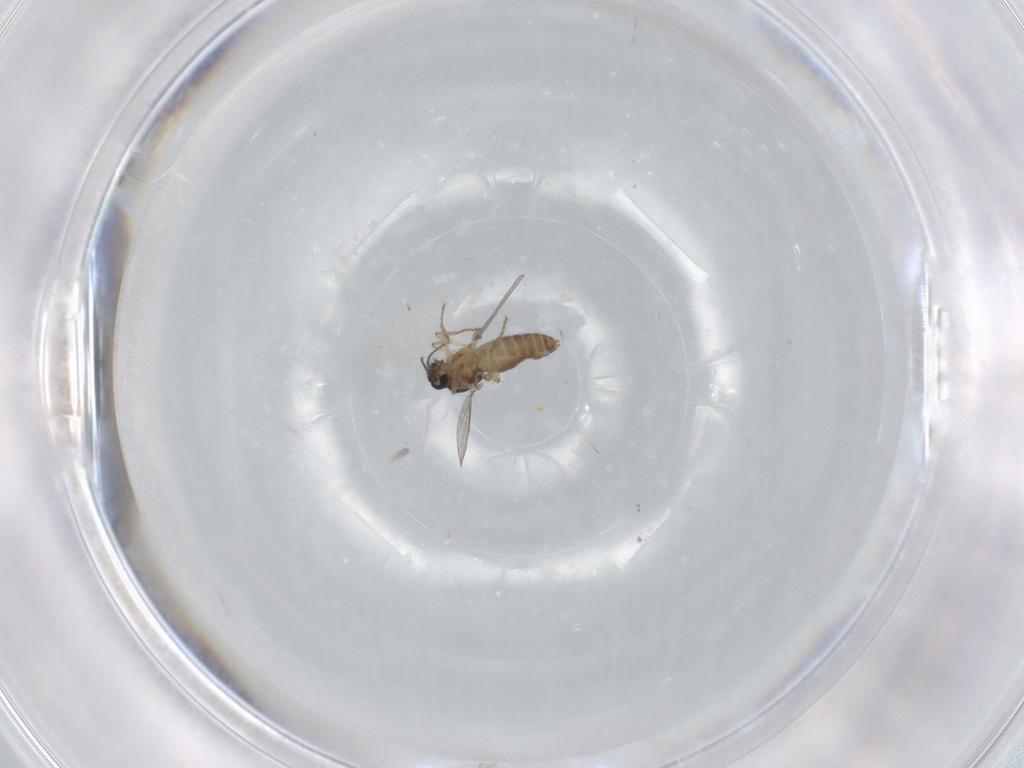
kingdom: Animalia
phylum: Arthropoda
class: Insecta
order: Diptera
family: Ceratopogonidae
